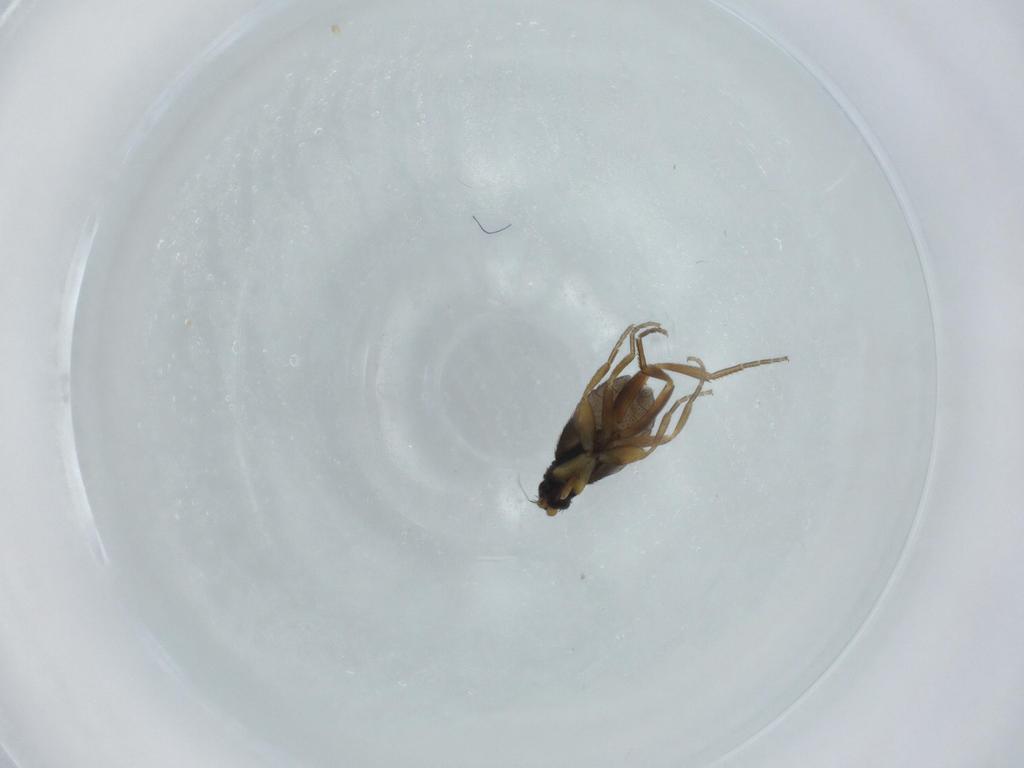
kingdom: Animalia
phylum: Arthropoda
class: Insecta
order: Diptera
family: Phoridae
